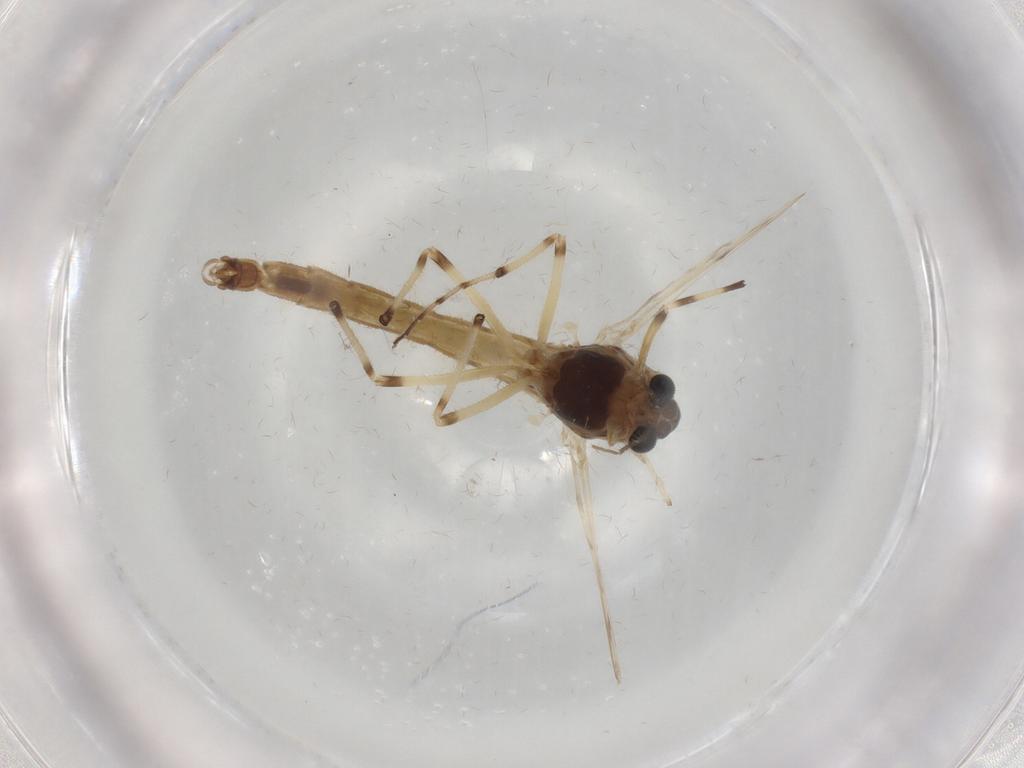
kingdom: Animalia
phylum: Arthropoda
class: Insecta
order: Diptera
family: Chironomidae
